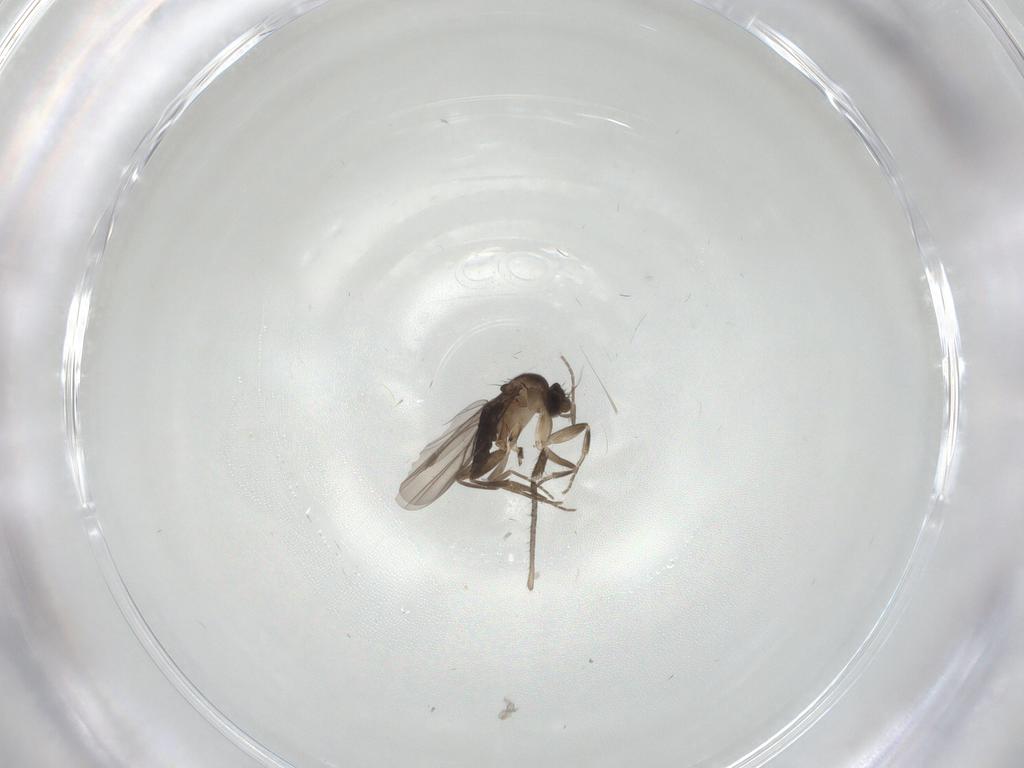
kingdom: Animalia
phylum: Arthropoda
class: Insecta
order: Diptera
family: Phoridae
